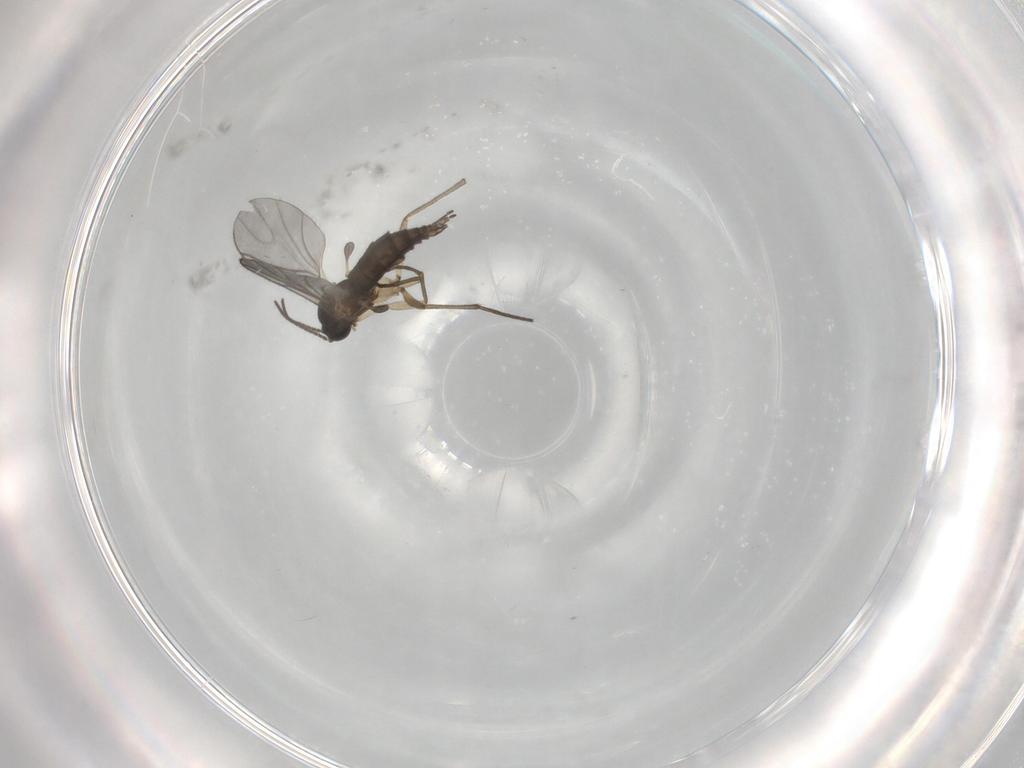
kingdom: Animalia
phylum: Arthropoda
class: Insecta
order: Diptera
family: Sciaridae
